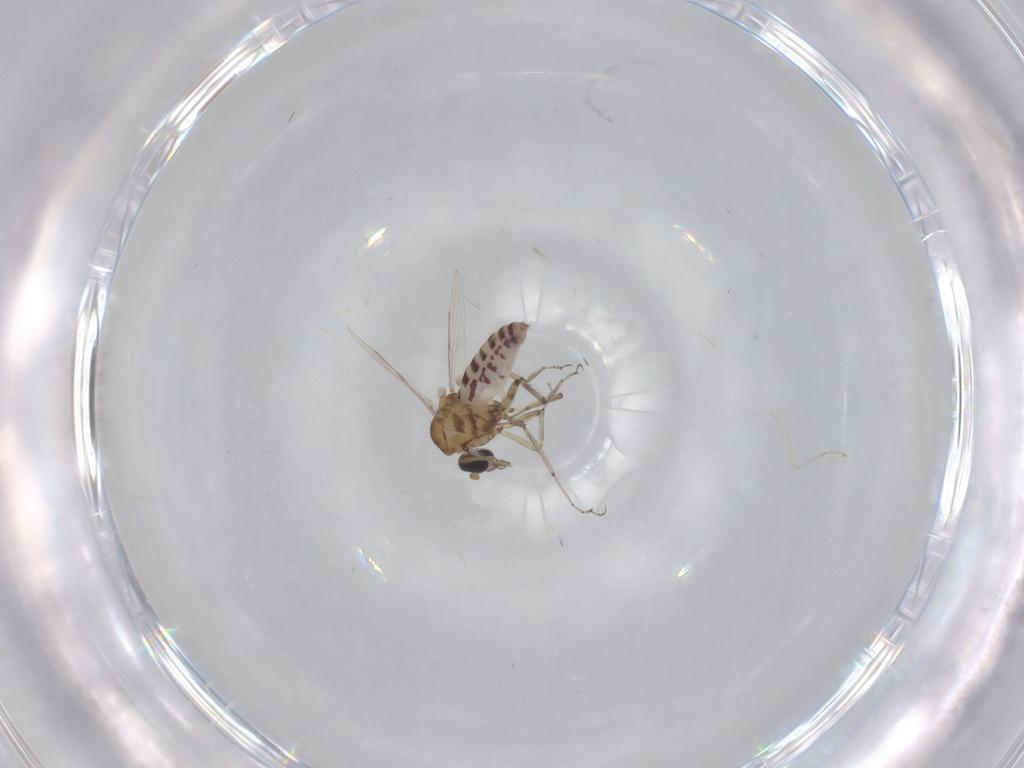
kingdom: Animalia
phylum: Arthropoda
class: Insecta
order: Diptera
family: Ceratopogonidae
